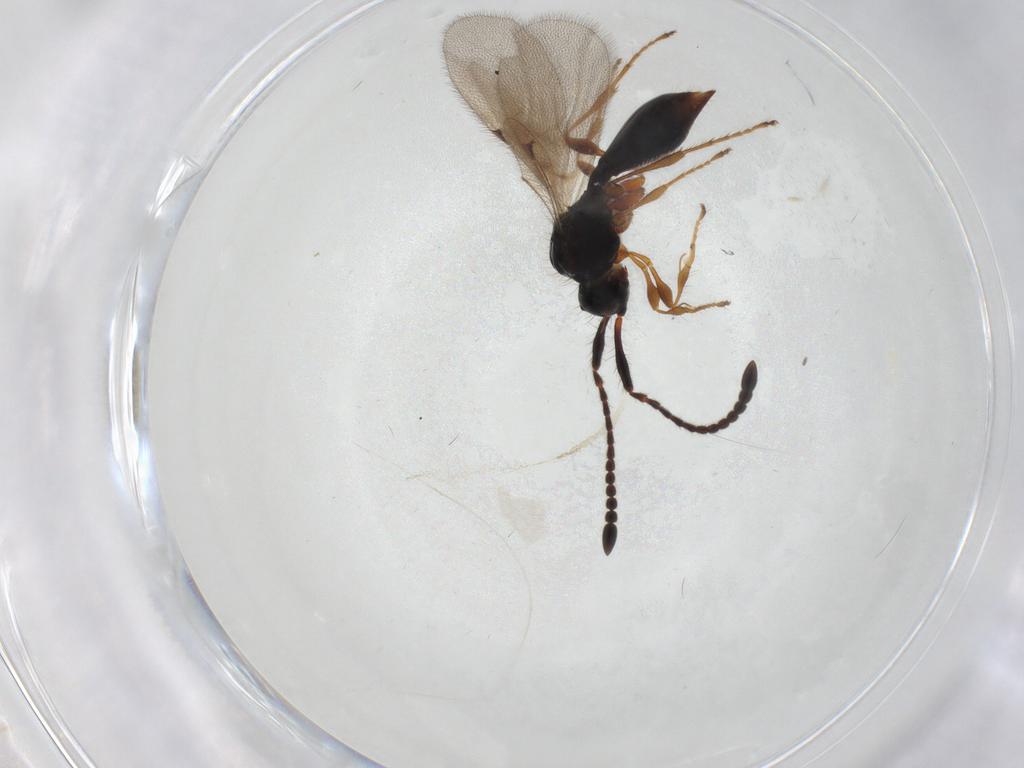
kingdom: Animalia
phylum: Arthropoda
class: Insecta
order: Hymenoptera
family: Diapriidae
